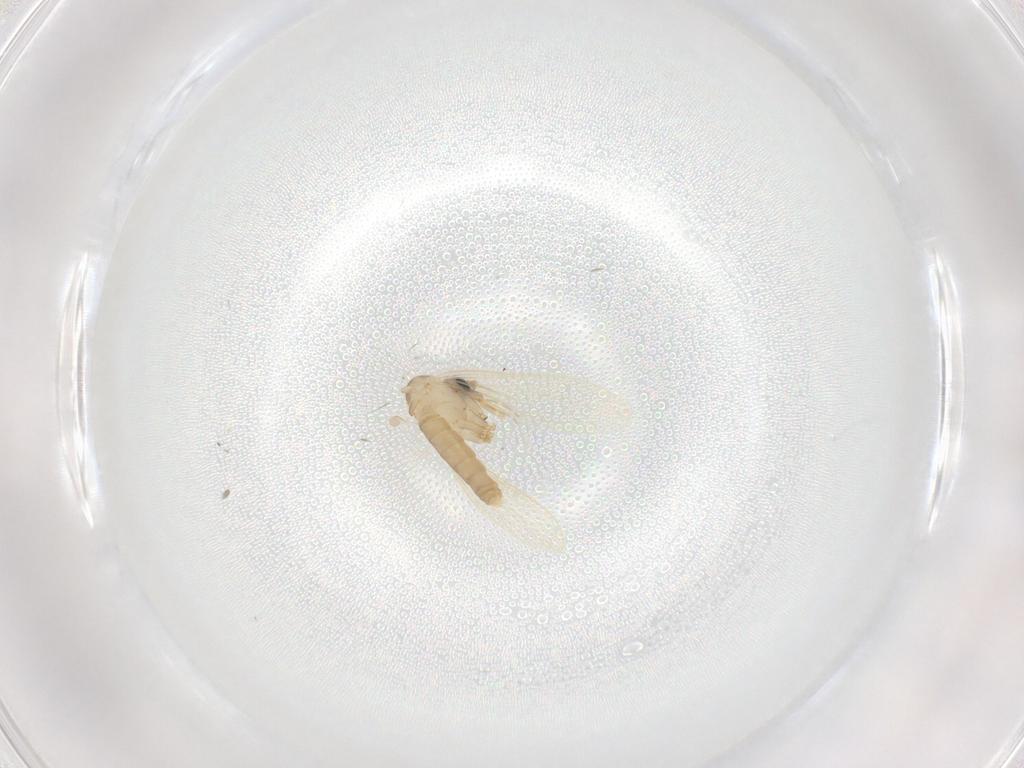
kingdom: Animalia
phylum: Arthropoda
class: Insecta
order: Diptera
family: Psychodidae
